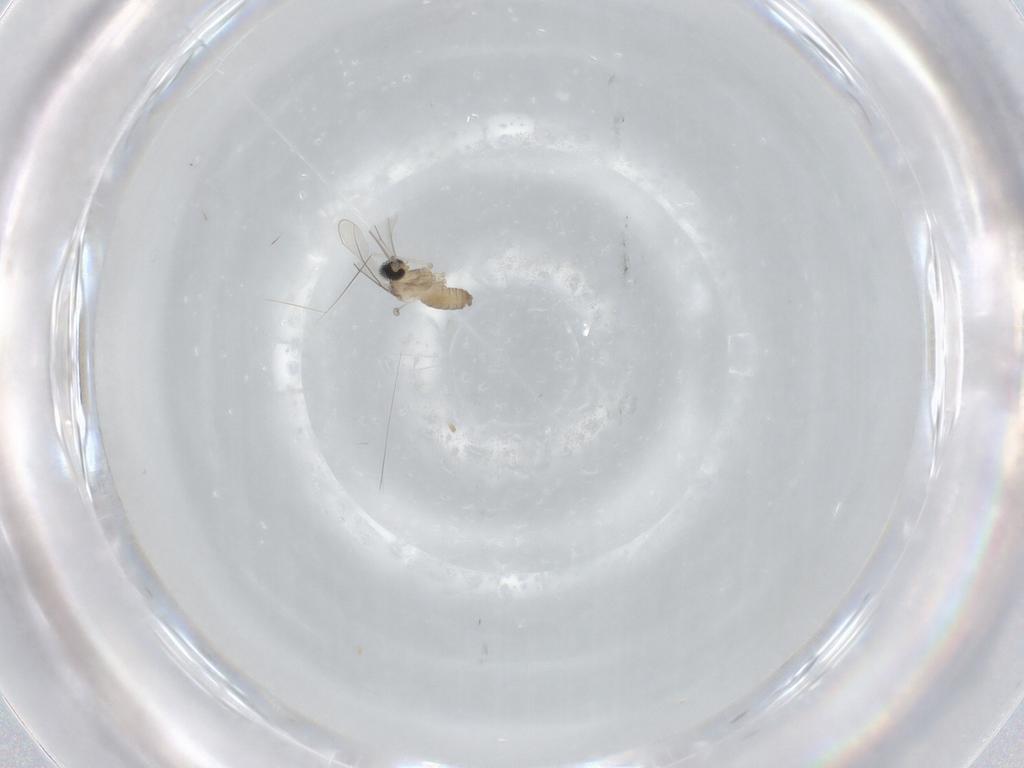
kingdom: Animalia
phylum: Arthropoda
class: Insecta
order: Diptera
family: Cecidomyiidae
